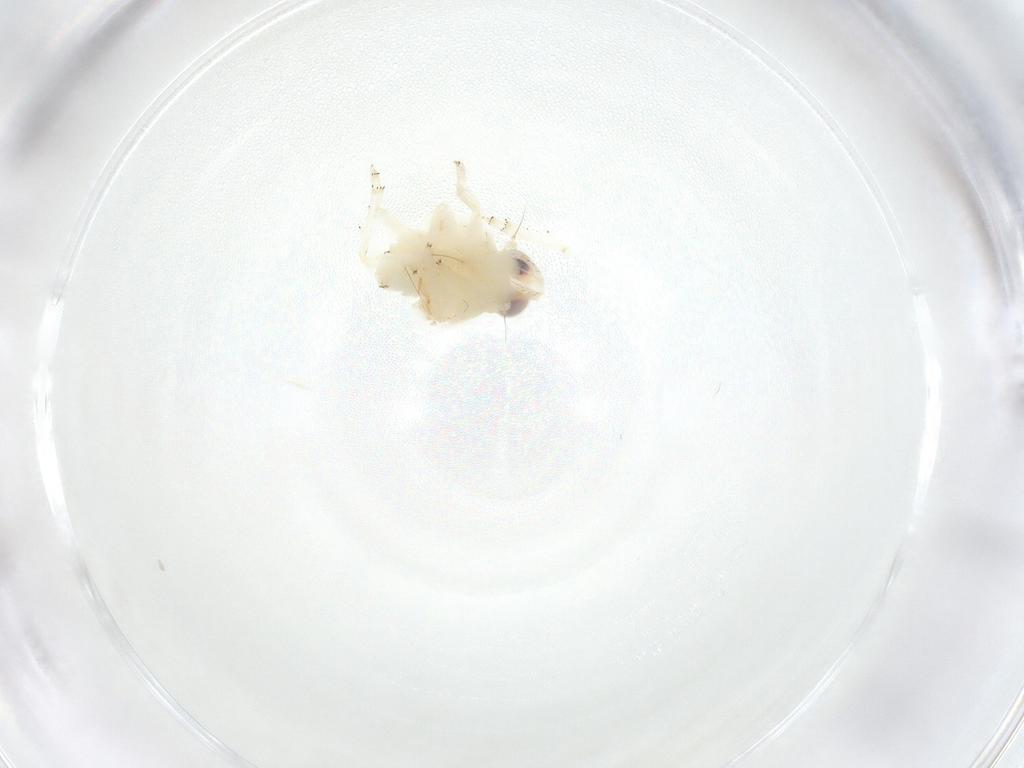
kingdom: Animalia
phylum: Arthropoda
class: Insecta
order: Hemiptera
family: Nogodinidae
